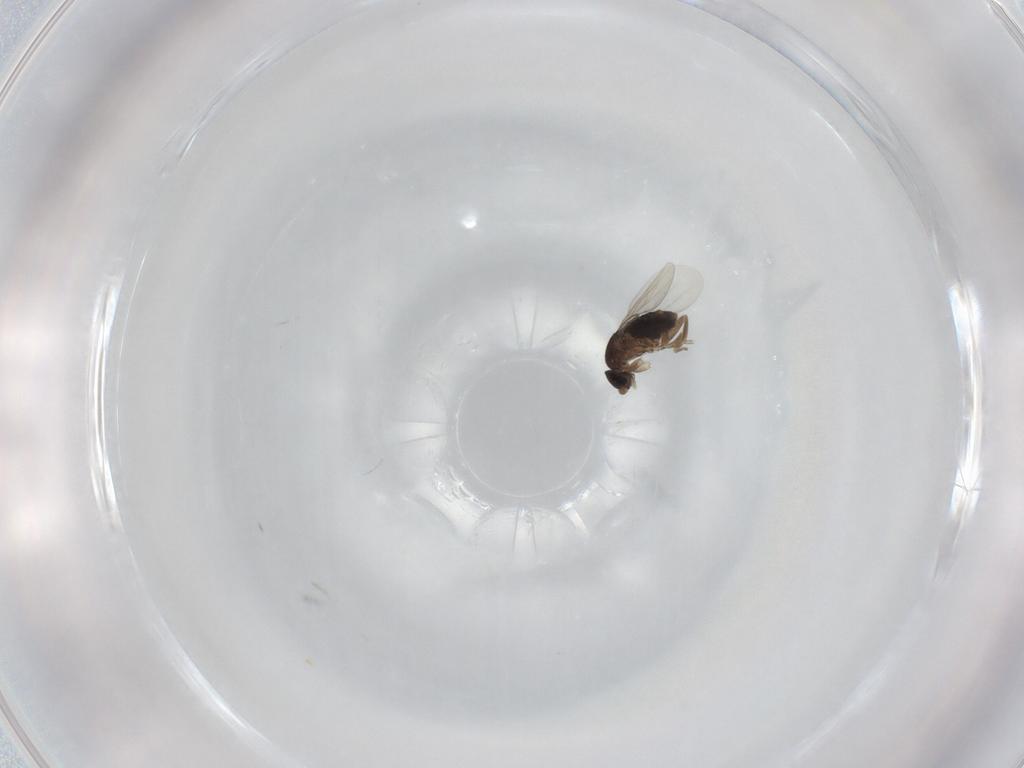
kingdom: Animalia
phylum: Arthropoda
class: Insecta
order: Diptera
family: Phoridae
